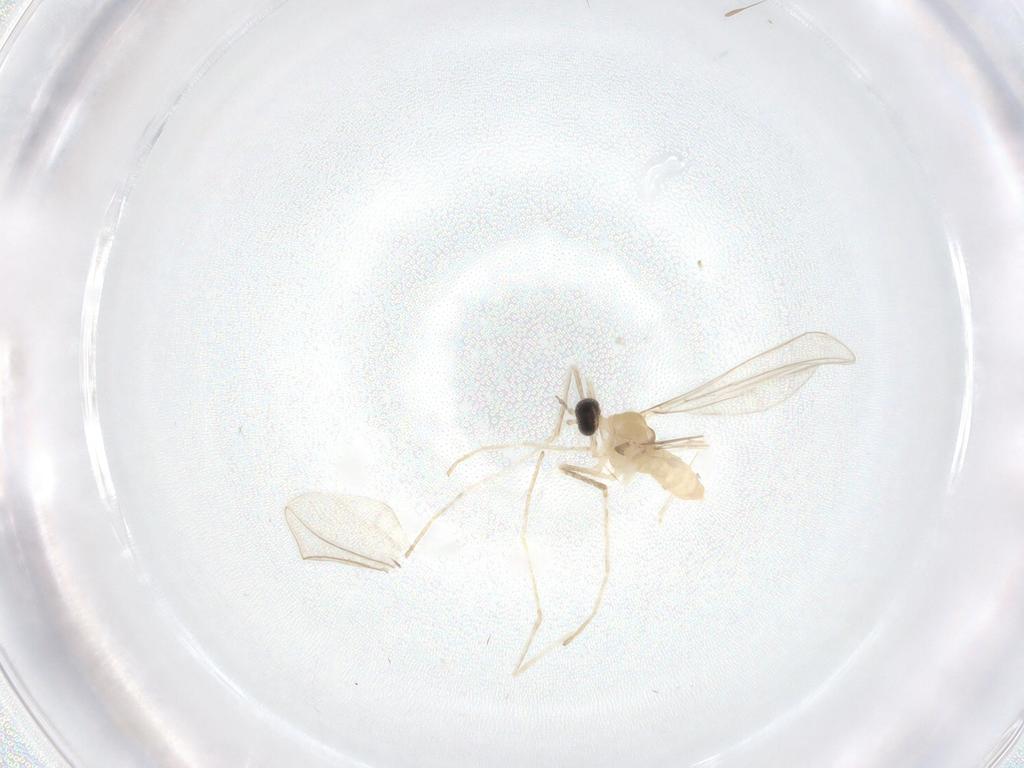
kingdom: Animalia
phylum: Arthropoda
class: Insecta
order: Diptera
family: Cecidomyiidae
